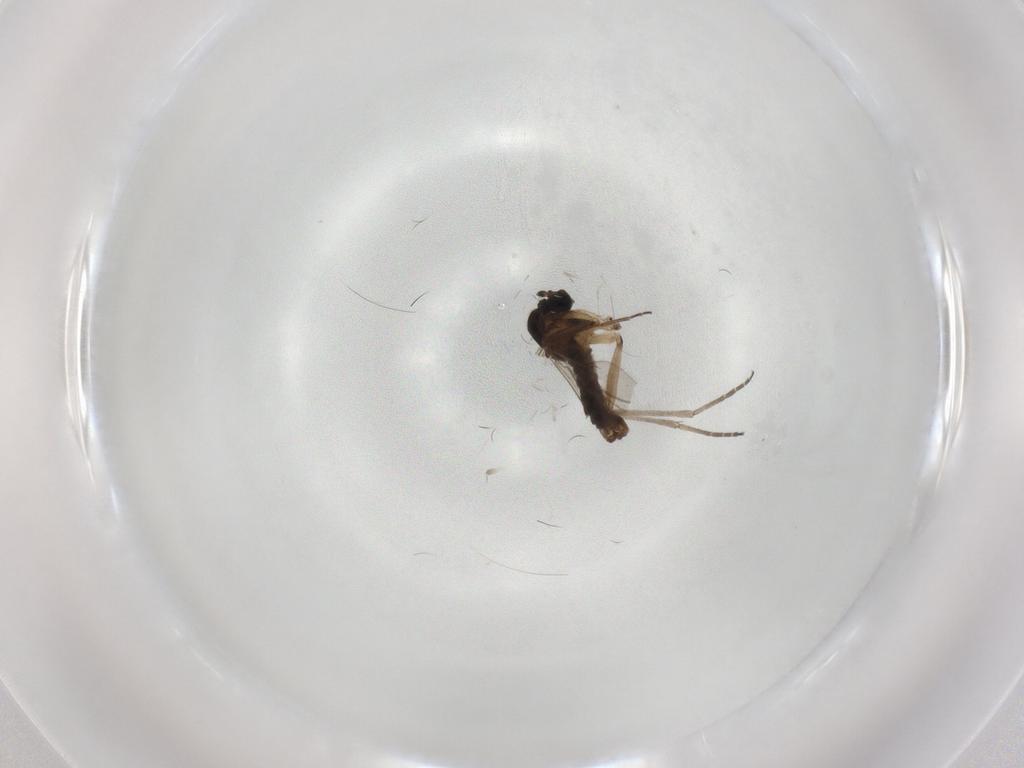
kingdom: Animalia
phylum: Arthropoda
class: Insecta
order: Diptera
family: Sciaridae
